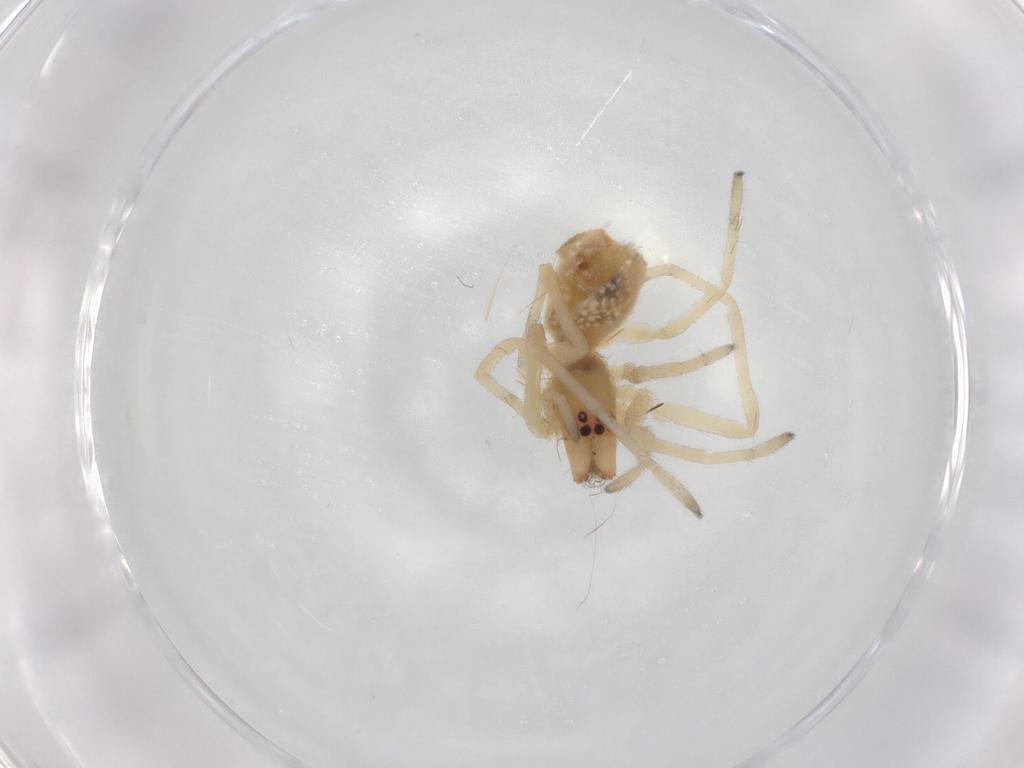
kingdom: Animalia
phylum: Arthropoda
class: Arachnida
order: Araneae
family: Cheiracanthiidae
